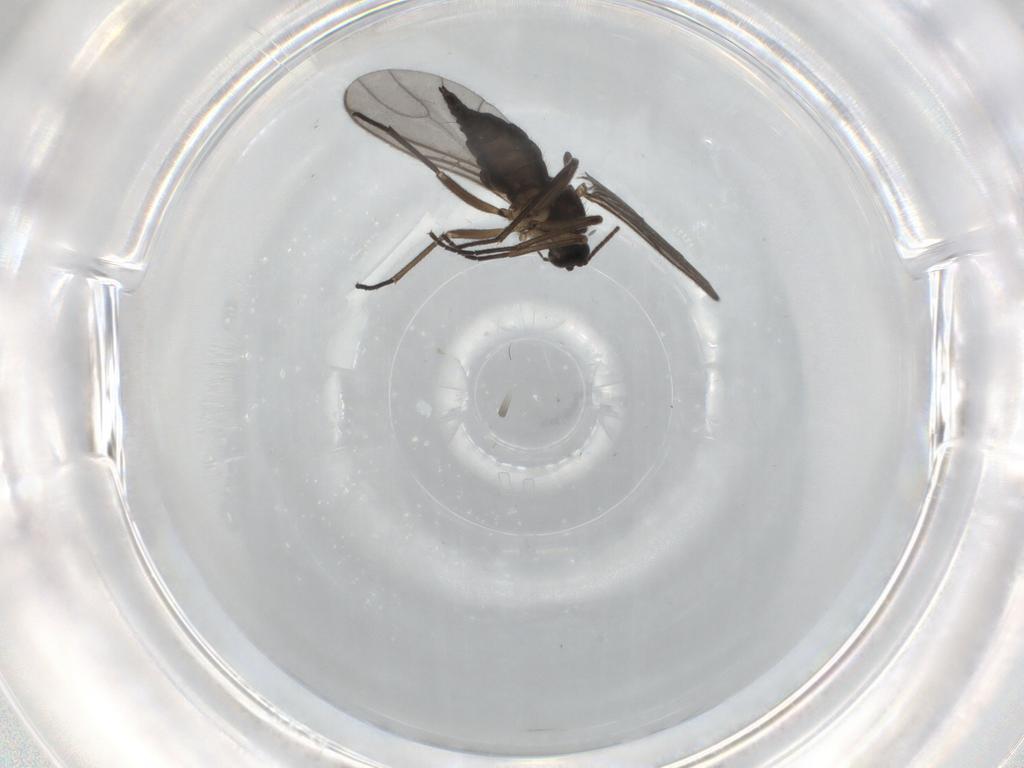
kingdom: Animalia
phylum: Arthropoda
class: Insecta
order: Diptera
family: Sciaridae
